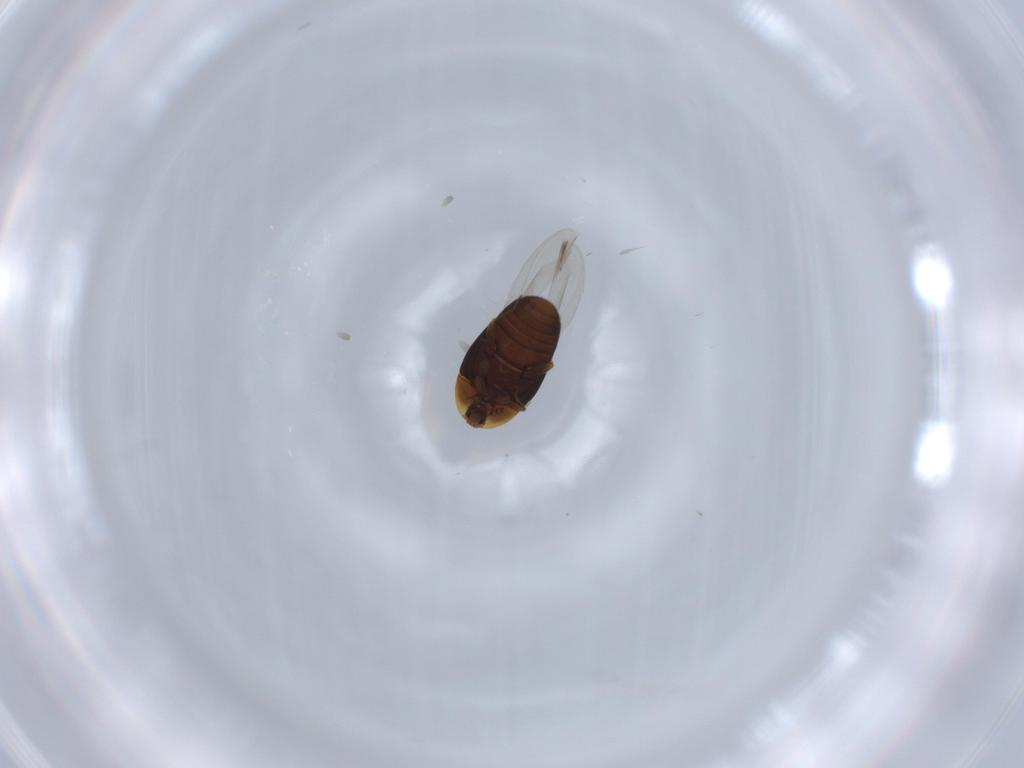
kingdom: Animalia
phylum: Arthropoda
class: Insecta
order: Coleoptera
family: Corylophidae
